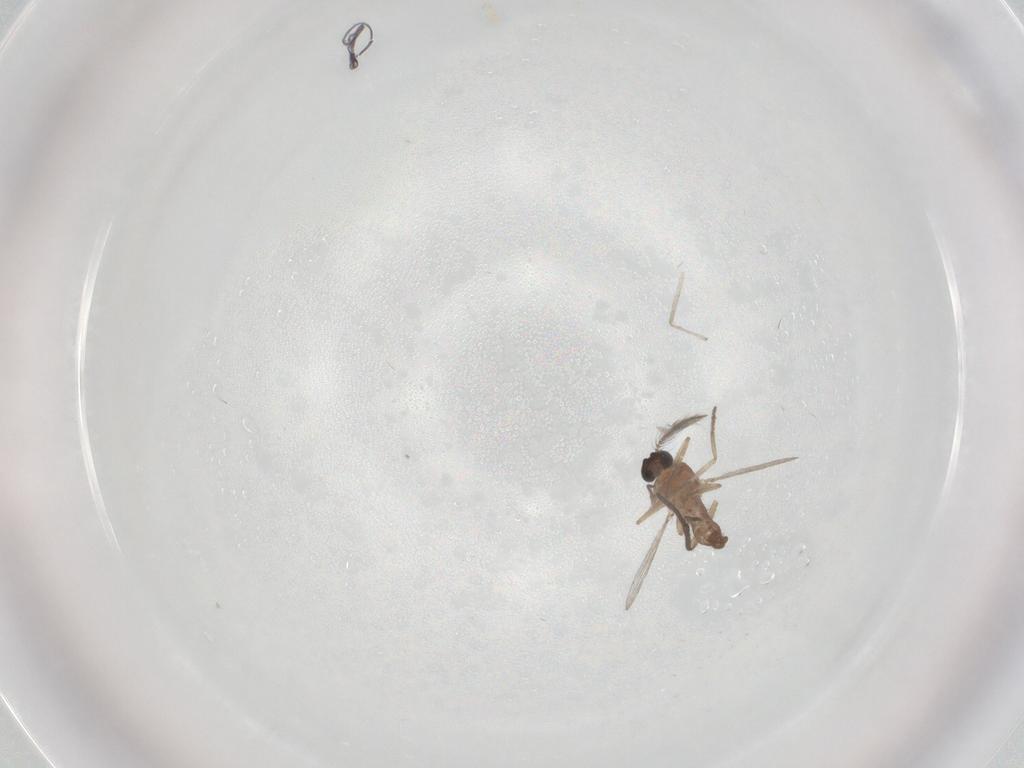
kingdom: Animalia
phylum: Arthropoda
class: Insecta
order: Diptera
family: Ceratopogonidae
